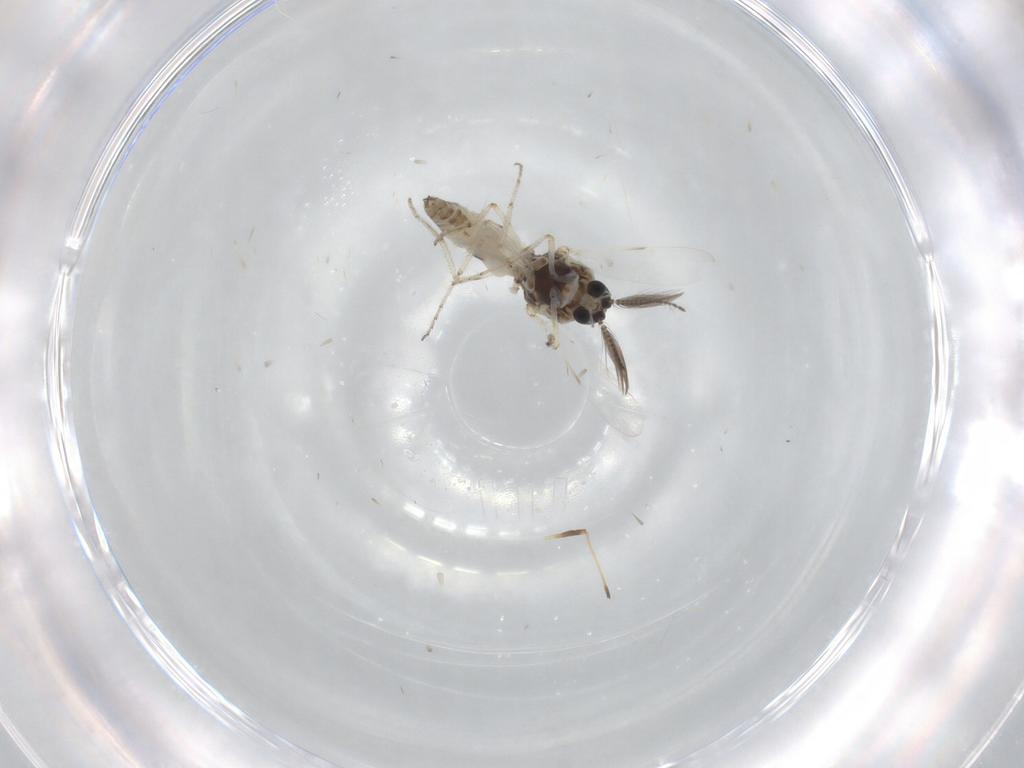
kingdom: Animalia
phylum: Arthropoda
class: Insecta
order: Diptera
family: Ceratopogonidae
